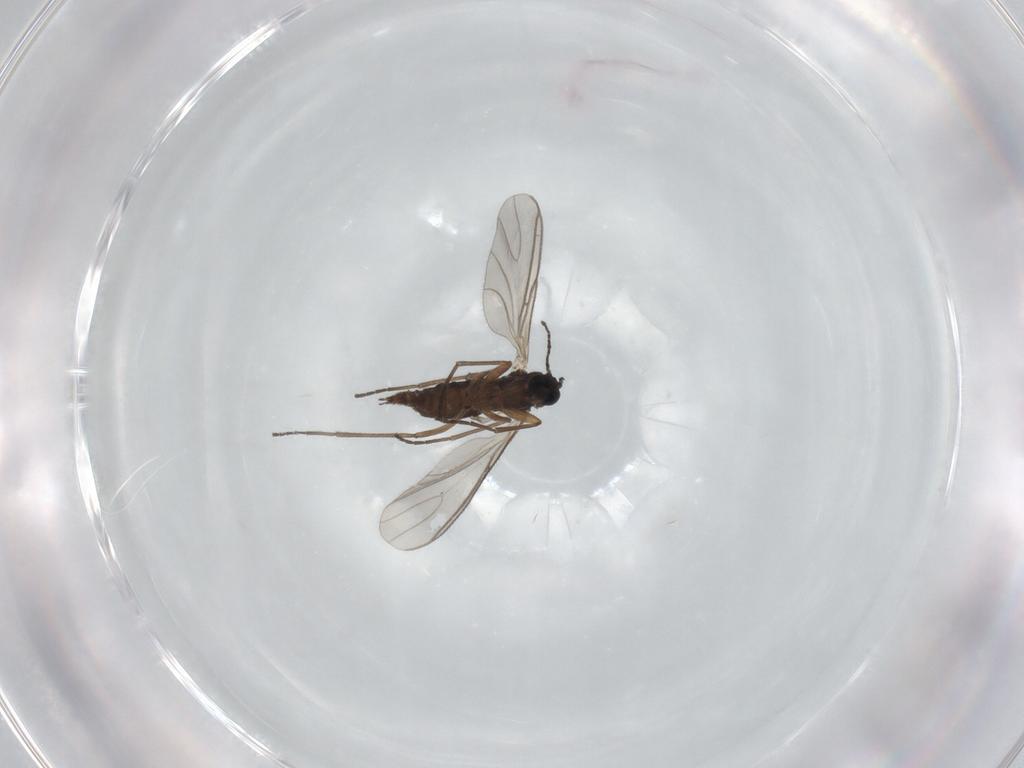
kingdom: Animalia
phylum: Arthropoda
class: Insecta
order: Diptera
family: Sciaridae
